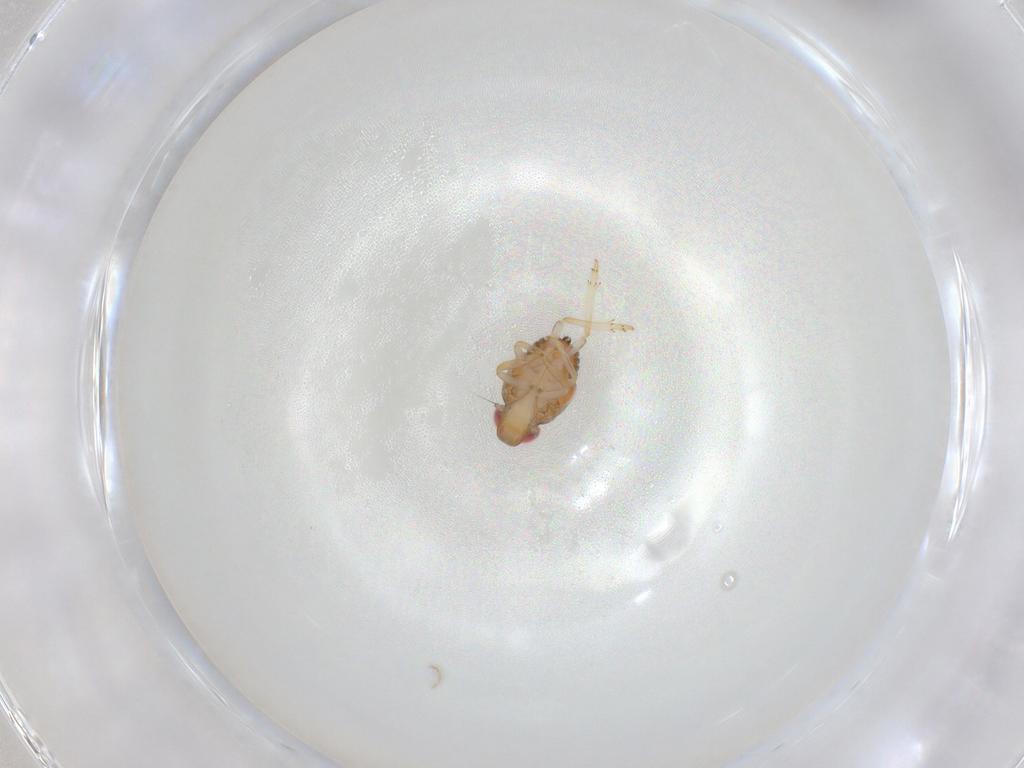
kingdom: Animalia
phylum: Arthropoda
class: Insecta
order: Hemiptera
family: Issidae
